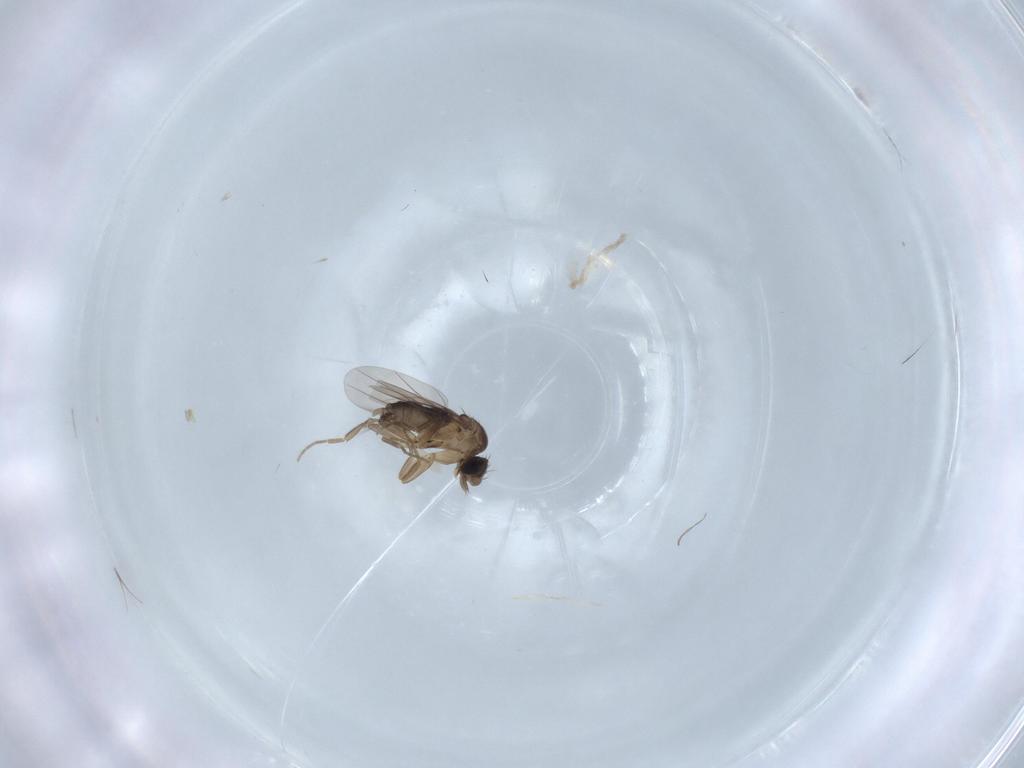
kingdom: Animalia
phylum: Arthropoda
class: Insecta
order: Diptera
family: Phoridae
